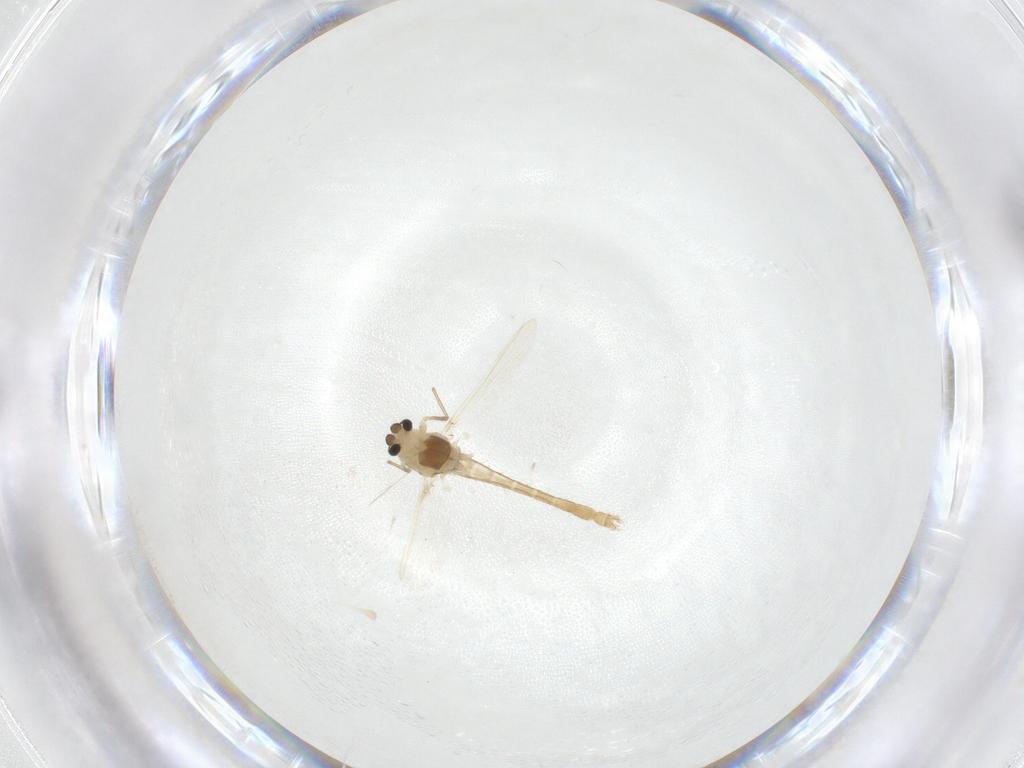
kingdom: Animalia
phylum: Arthropoda
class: Insecta
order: Diptera
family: Chironomidae
